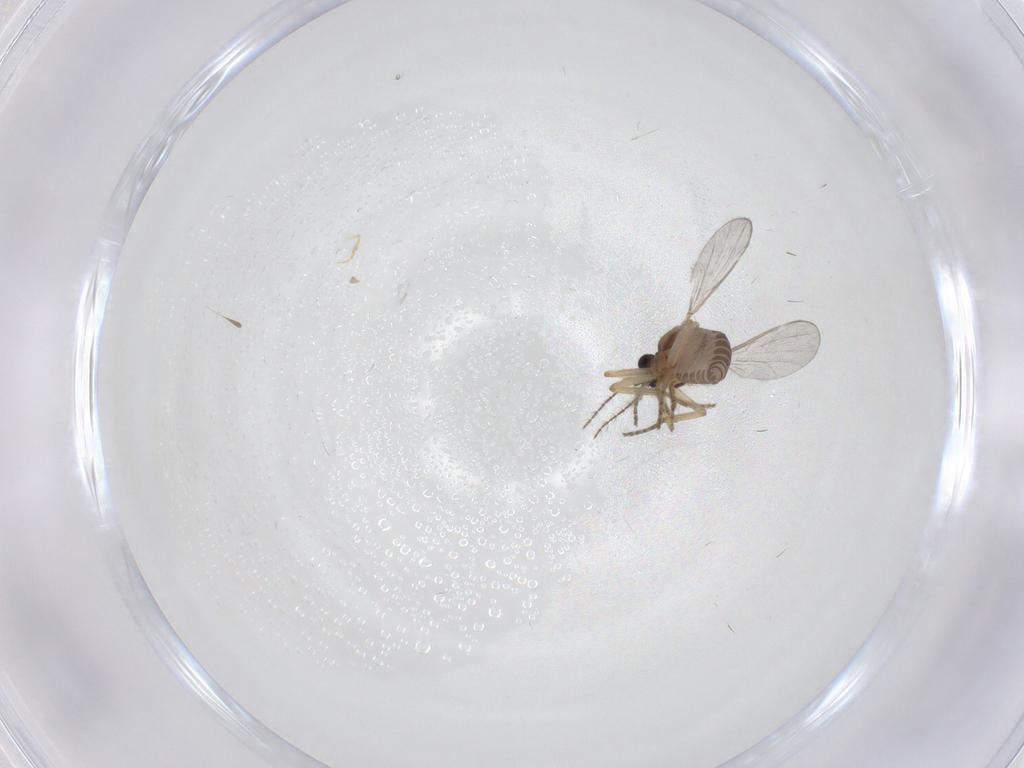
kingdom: Animalia
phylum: Arthropoda
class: Insecta
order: Diptera
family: Ceratopogonidae
